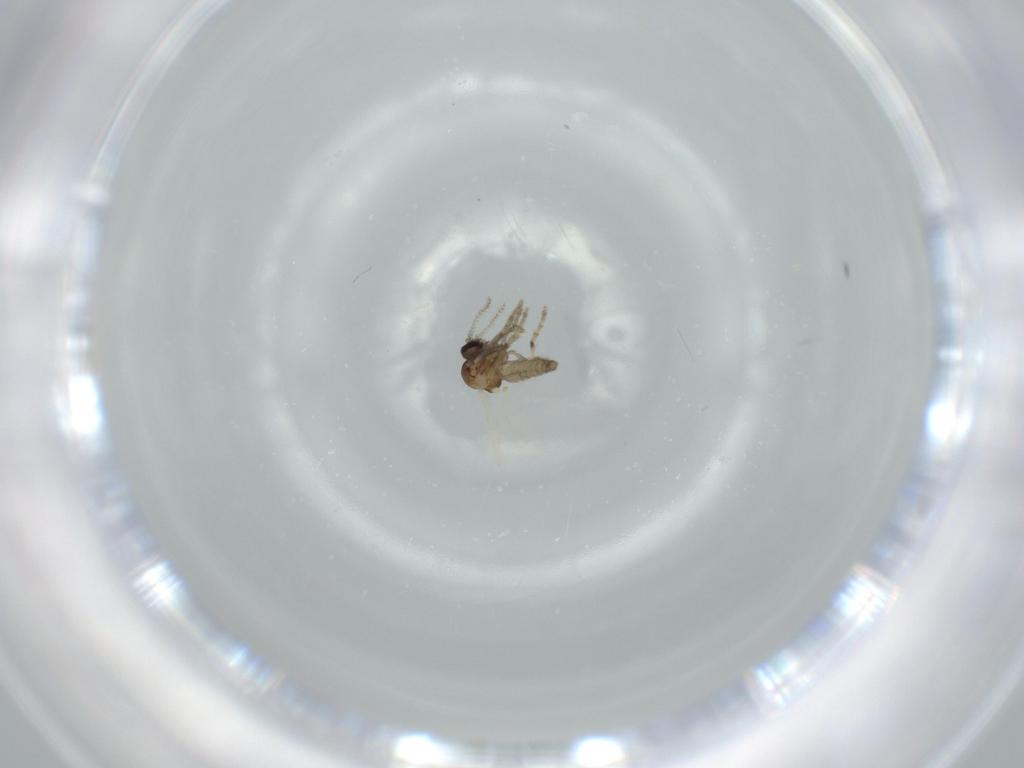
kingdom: Animalia
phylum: Arthropoda
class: Insecta
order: Diptera
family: Ceratopogonidae
